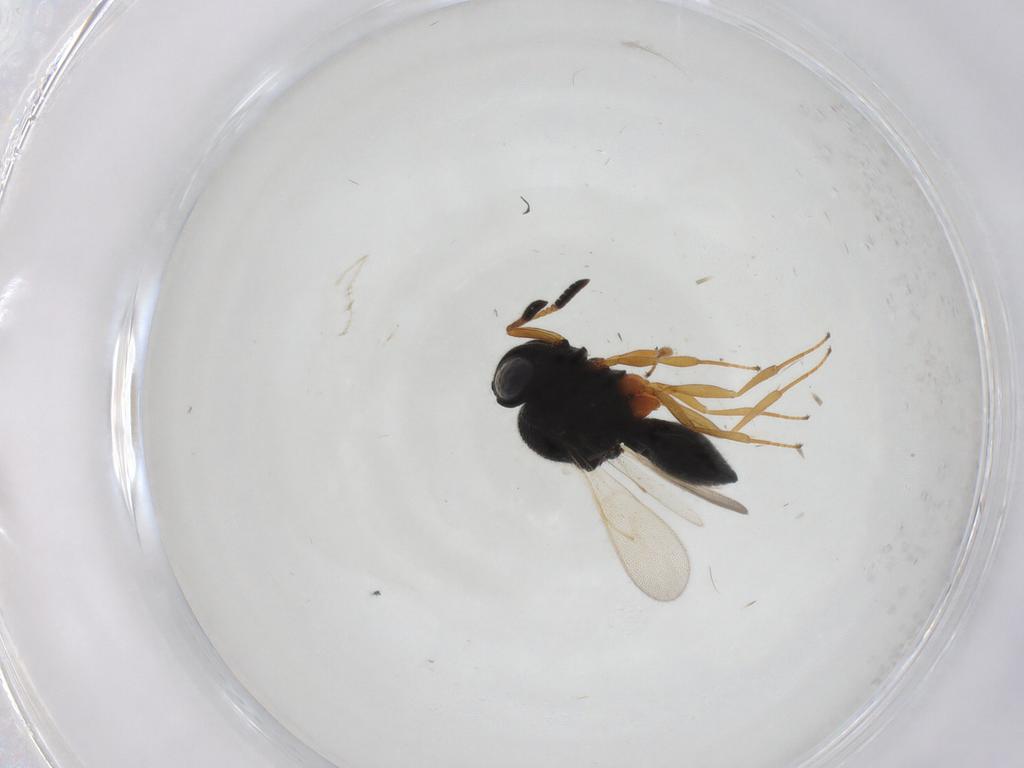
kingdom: Animalia
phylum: Arthropoda
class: Insecta
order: Hymenoptera
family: Scelionidae
